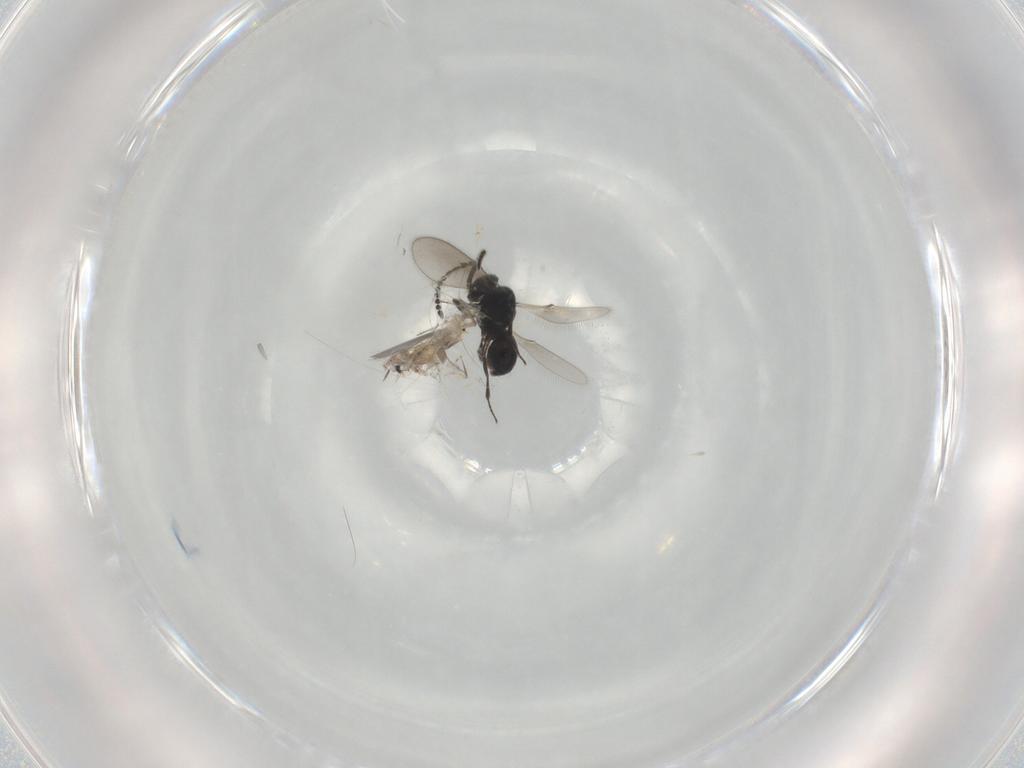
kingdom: Animalia
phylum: Arthropoda
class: Insecta
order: Hymenoptera
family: Scelionidae
